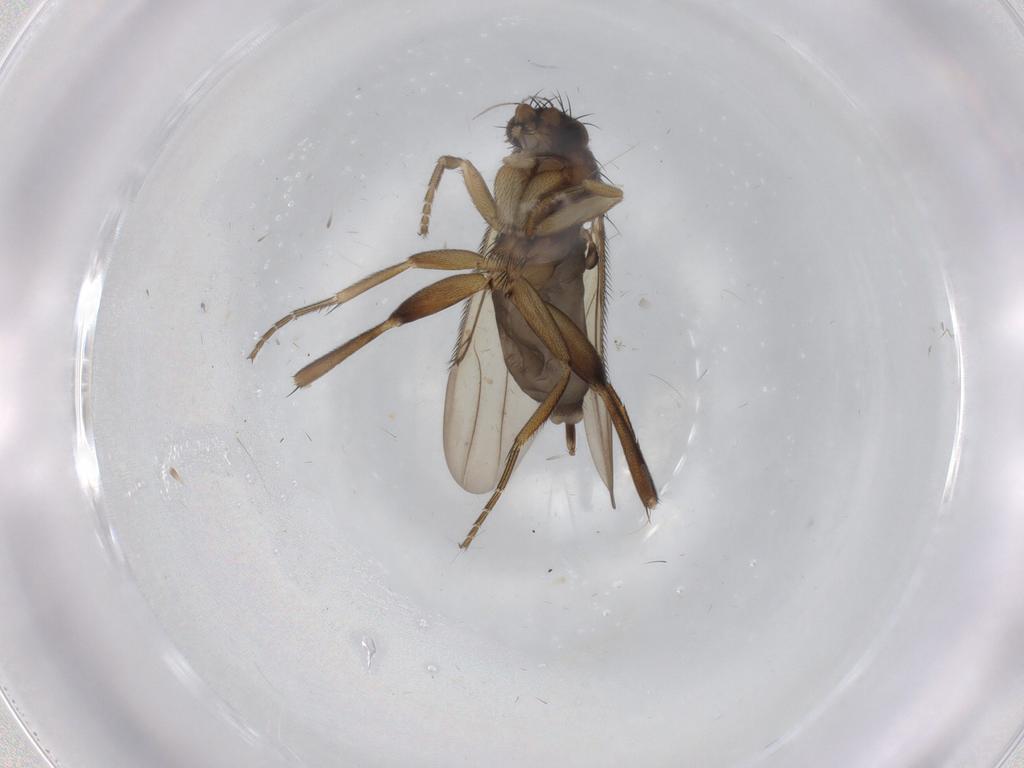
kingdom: Animalia
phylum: Arthropoda
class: Insecta
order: Diptera
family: Phoridae
